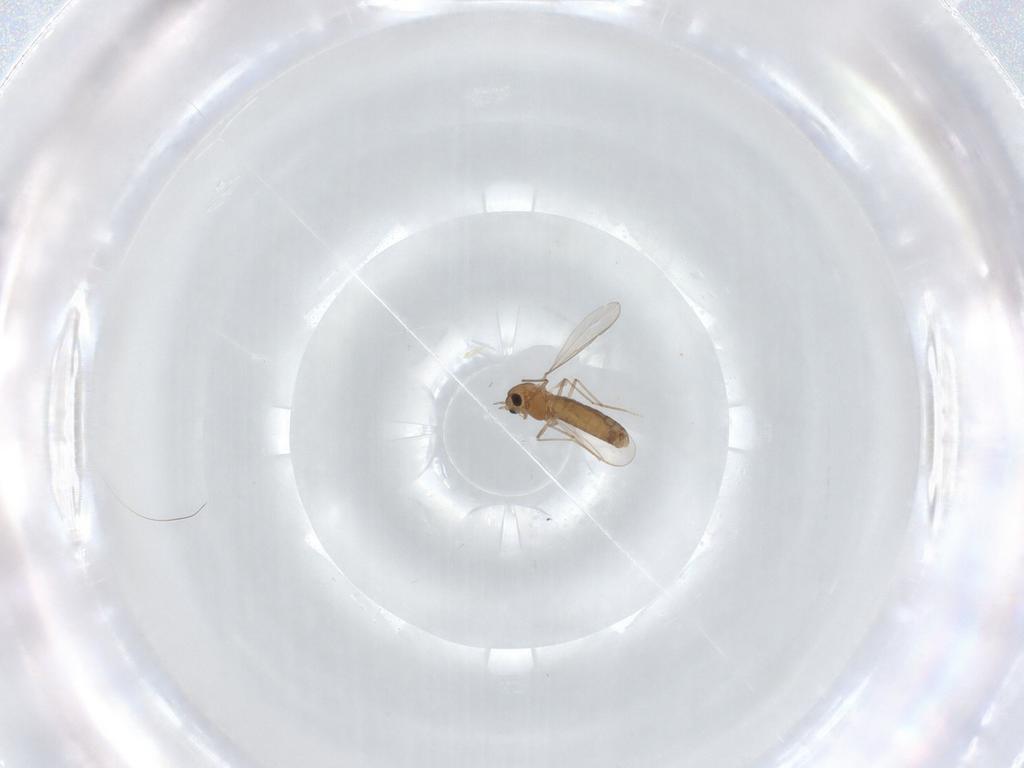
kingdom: Animalia
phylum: Arthropoda
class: Insecta
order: Diptera
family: Chironomidae
